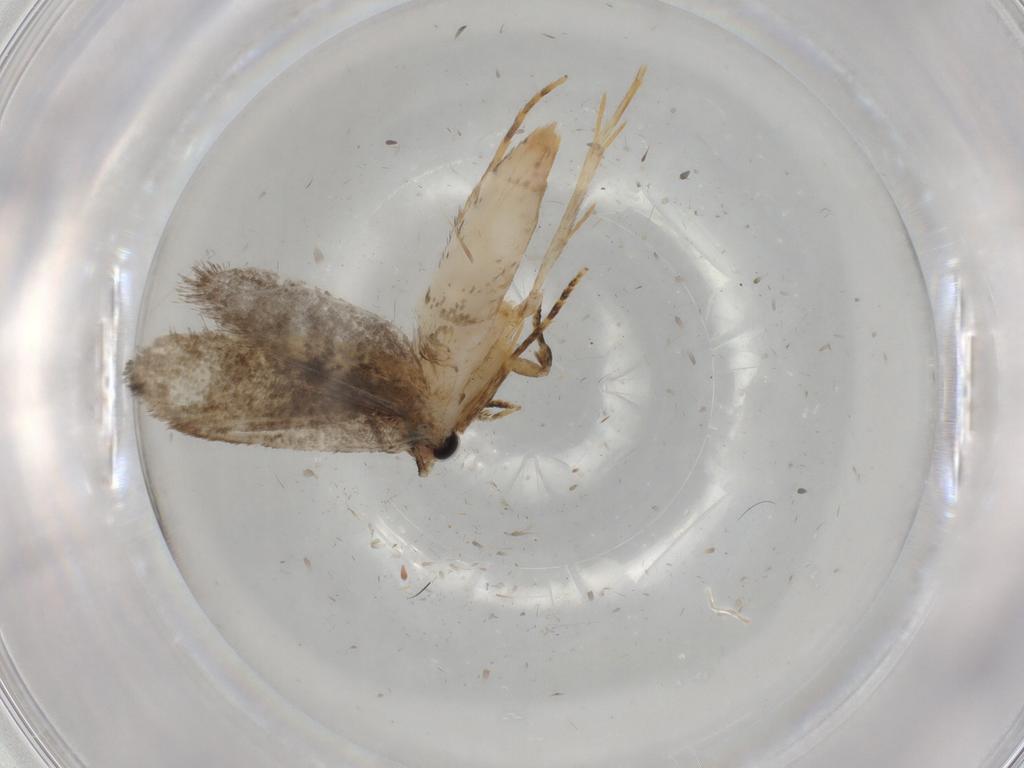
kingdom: Animalia
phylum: Arthropoda
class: Insecta
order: Lepidoptera
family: Tineidae
